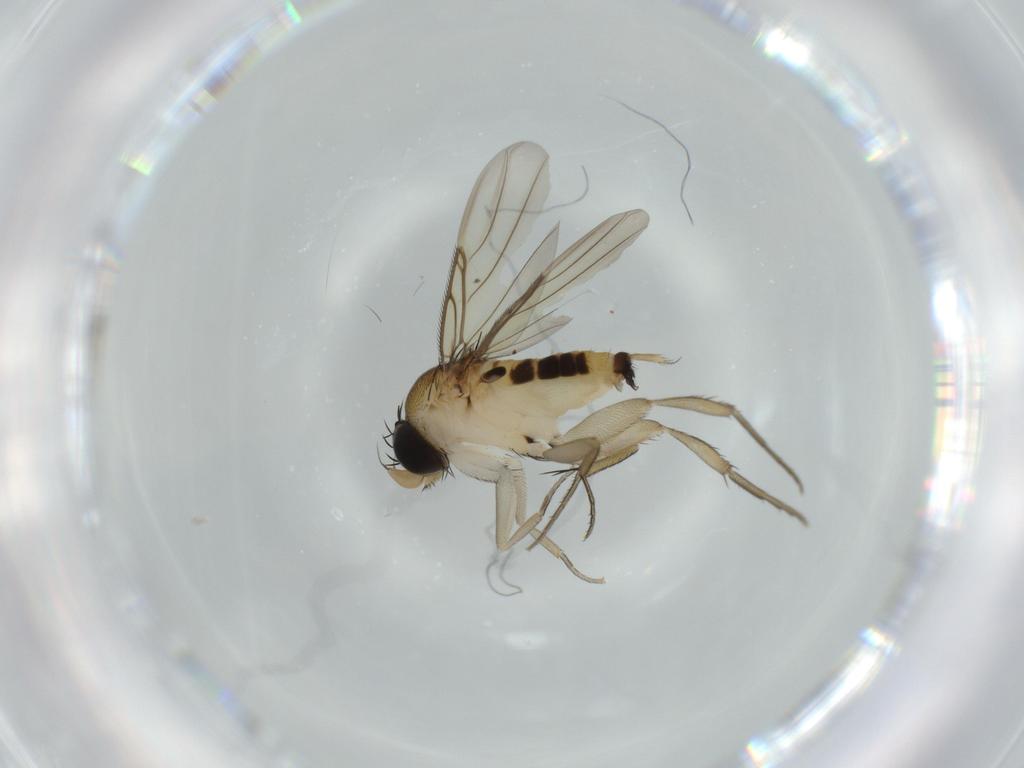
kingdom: Animalia
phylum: Arthropoda
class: Insecta
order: Diptera
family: Phoridae
